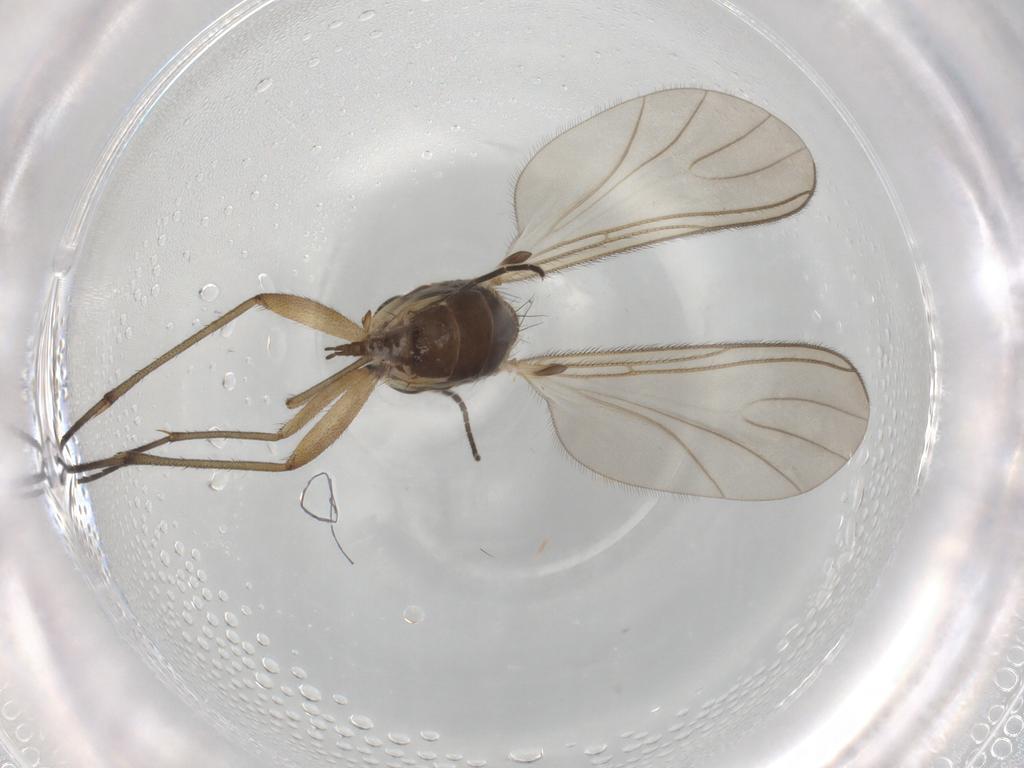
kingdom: Animalia
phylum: Arthropoda
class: Insecta
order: Diptera
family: Sciaridae
